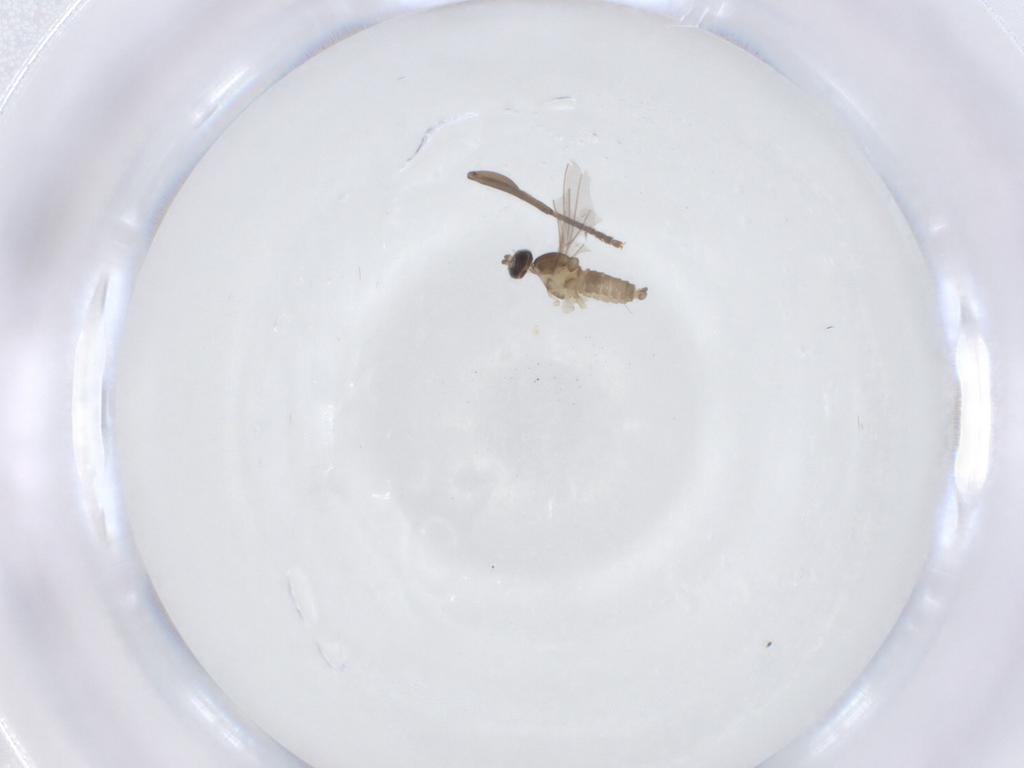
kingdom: Animalia
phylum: Arthropoda
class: Insecta
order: Diptera
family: Cecidomyiidae
